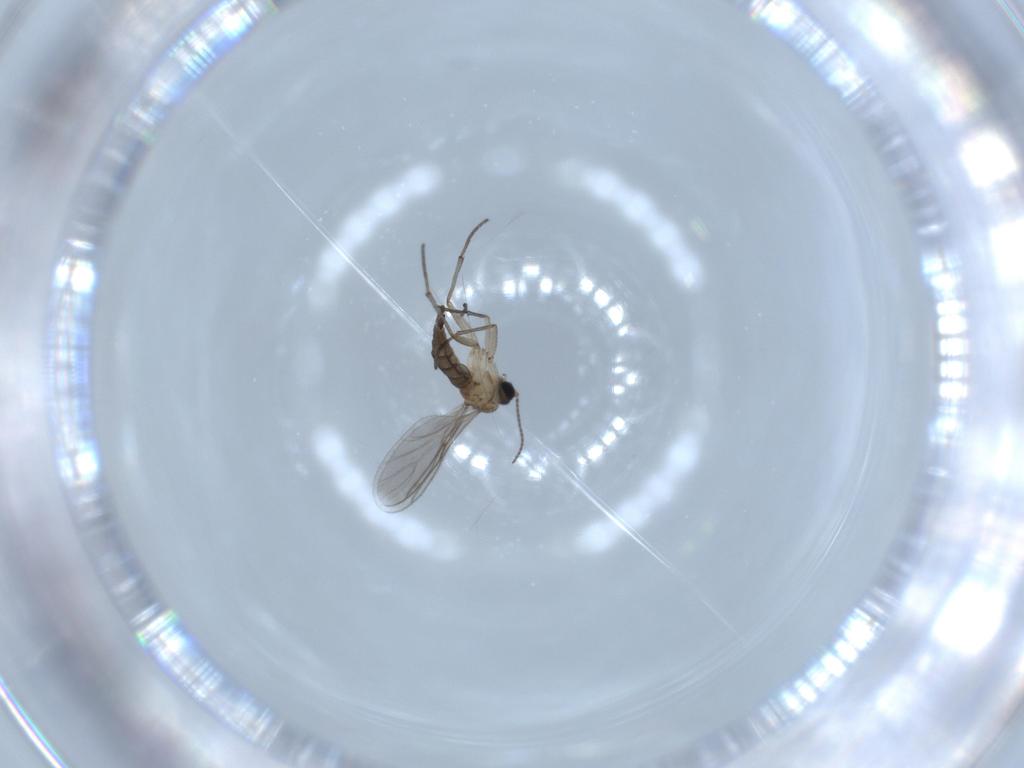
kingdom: Animalia
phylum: Arthropoda
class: Insecta
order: Diptera
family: Sciaridae
